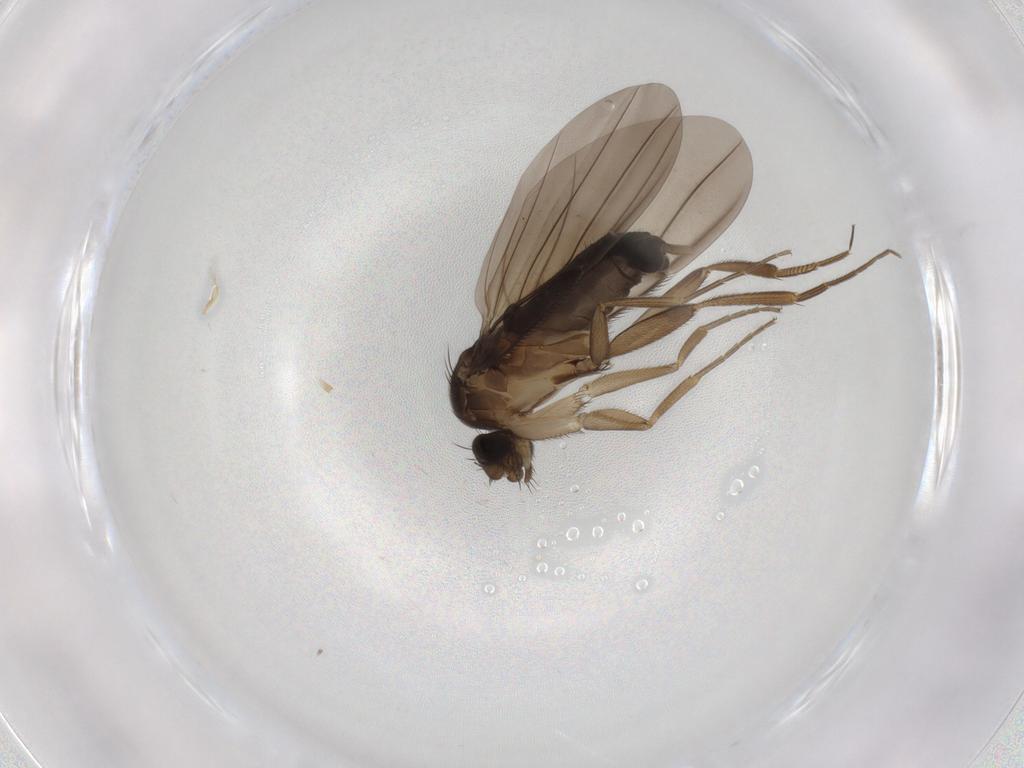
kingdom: Animalia
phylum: Arthropoda
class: Insecta
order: Diptera
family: Phoridae
